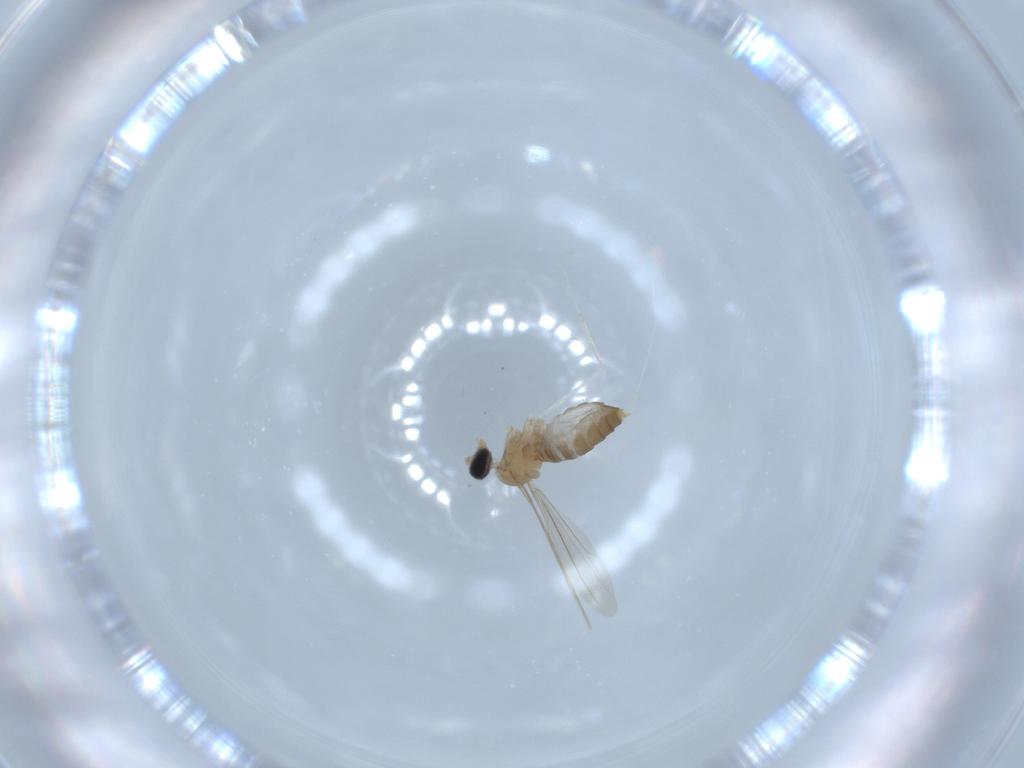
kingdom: Animalia
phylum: Arthropoda
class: Insecta
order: Diptera
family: Cecidomyiidae
